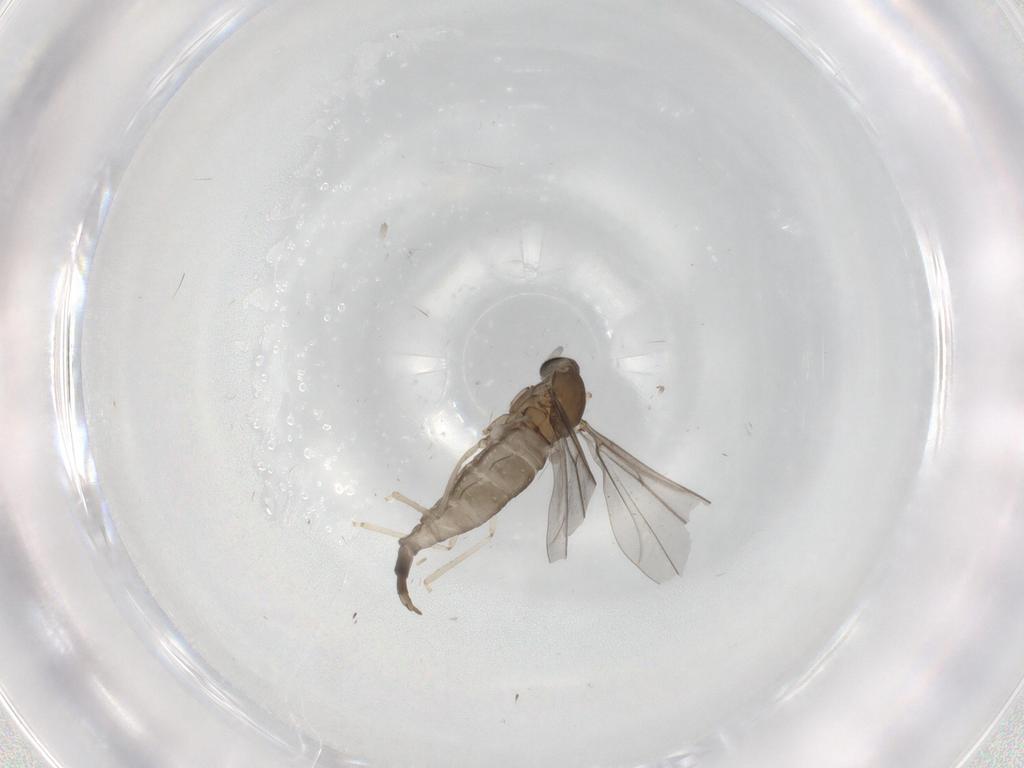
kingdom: Animalia
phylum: Arthropoda
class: Insecta
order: Diptera
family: Cecidomyiidae
